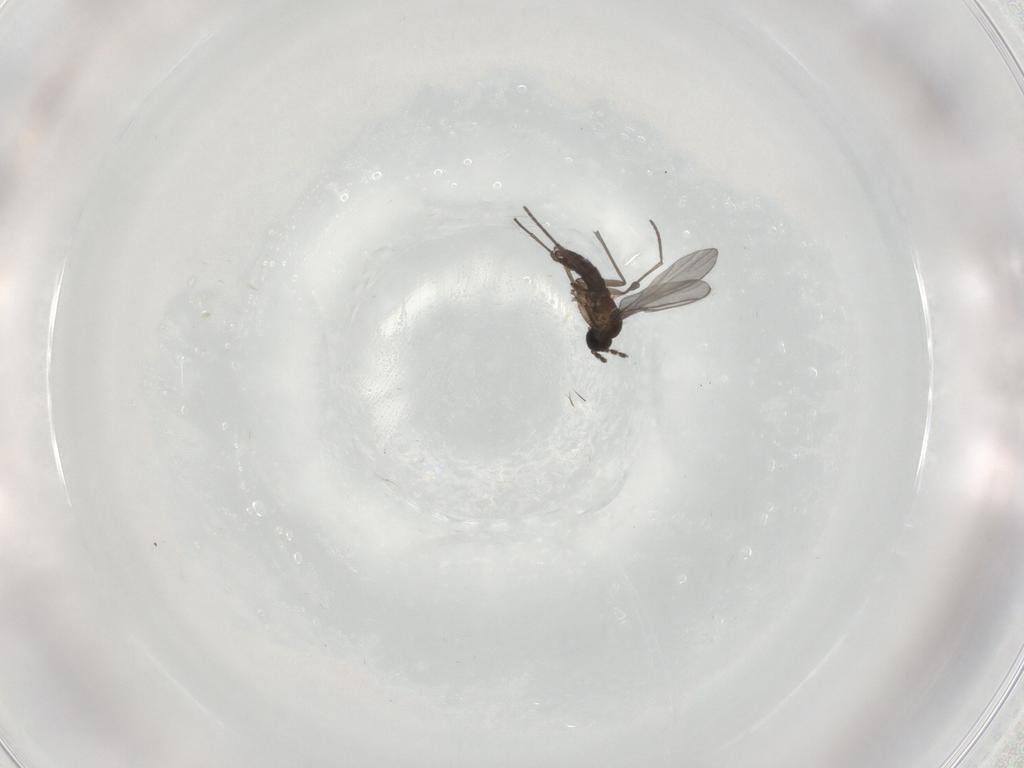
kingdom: Animalia
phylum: Arthropoda
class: Insecta
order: Diptera
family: Ceratopogonidae
